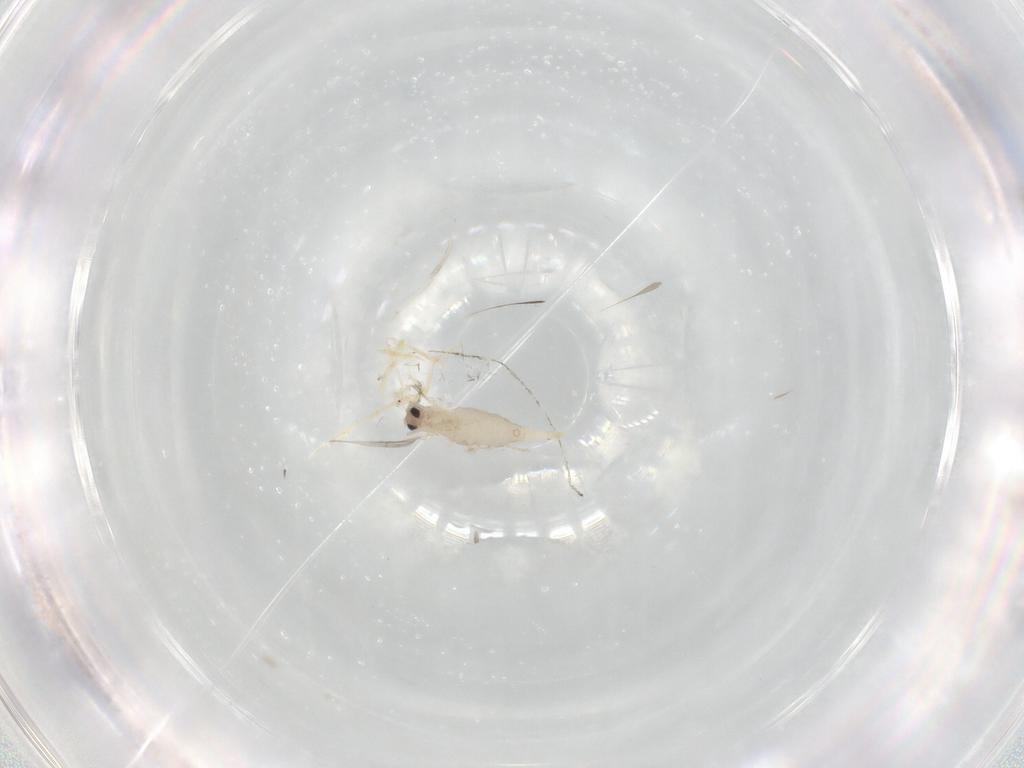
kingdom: Animalia
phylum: Arthropoda
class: Insecta
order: Diptera
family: Cecidomyiidae
